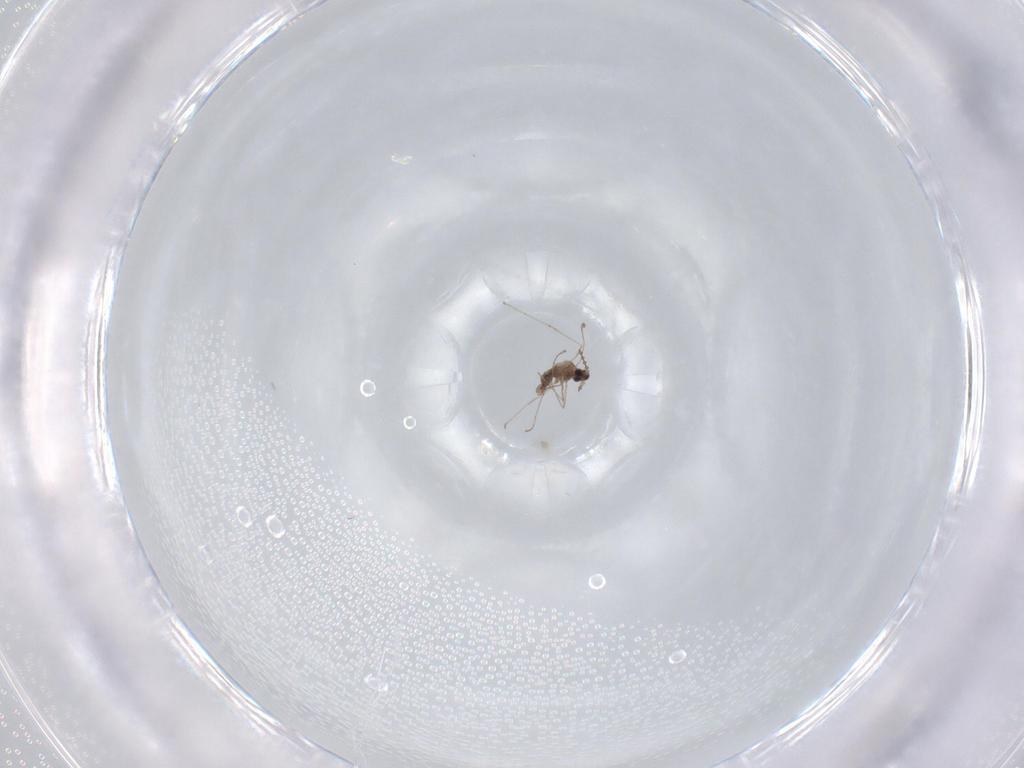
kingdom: Animalia
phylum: Arthropoda
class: Insecta
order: Diptera
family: Cecidomyiidae
